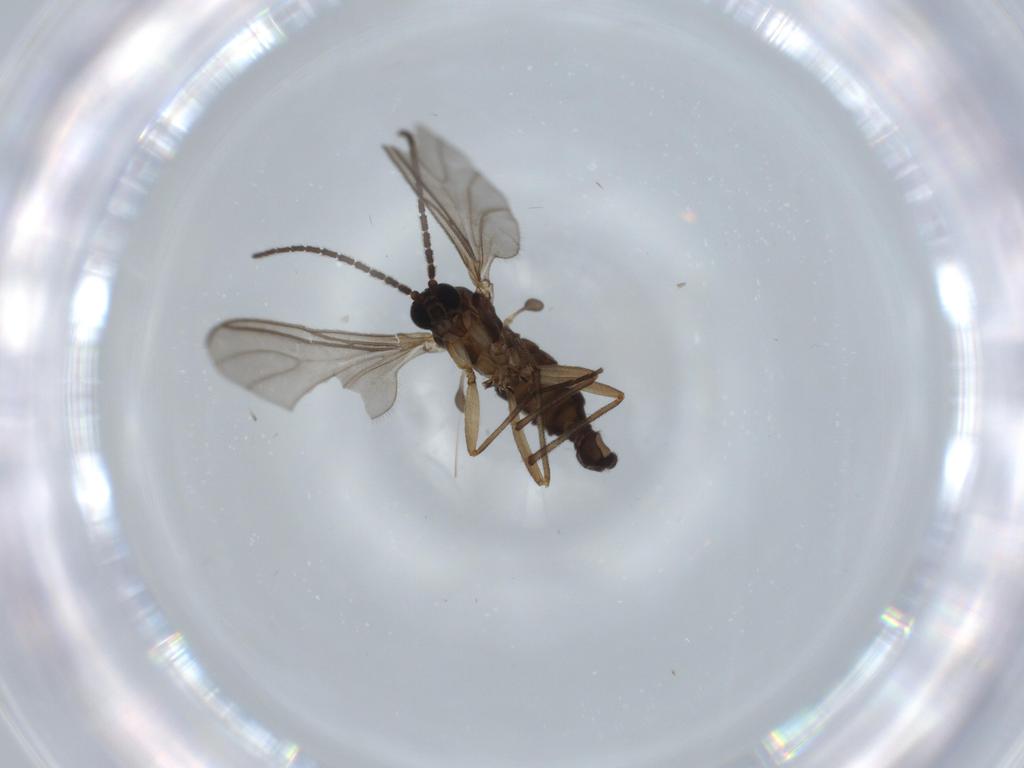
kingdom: Animalia
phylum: Arthropoda
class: Insecta
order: Diptera
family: Sciaridae
